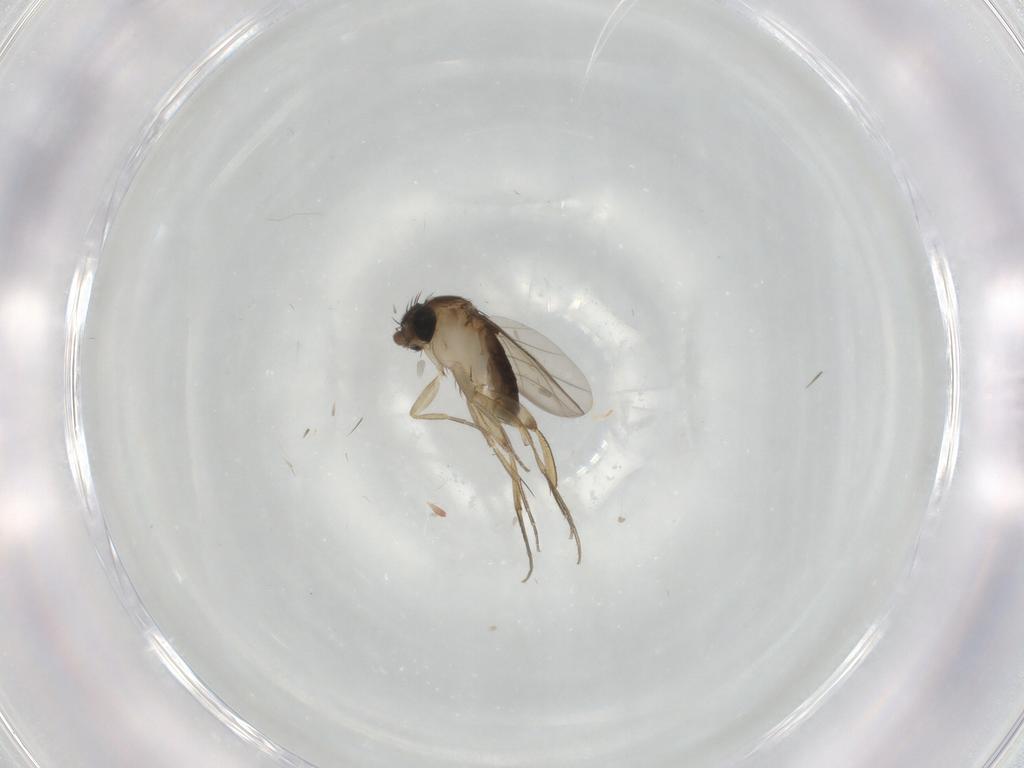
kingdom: Animalia
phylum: Arthropoda
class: Insecta
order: Diptera
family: Phoridae
